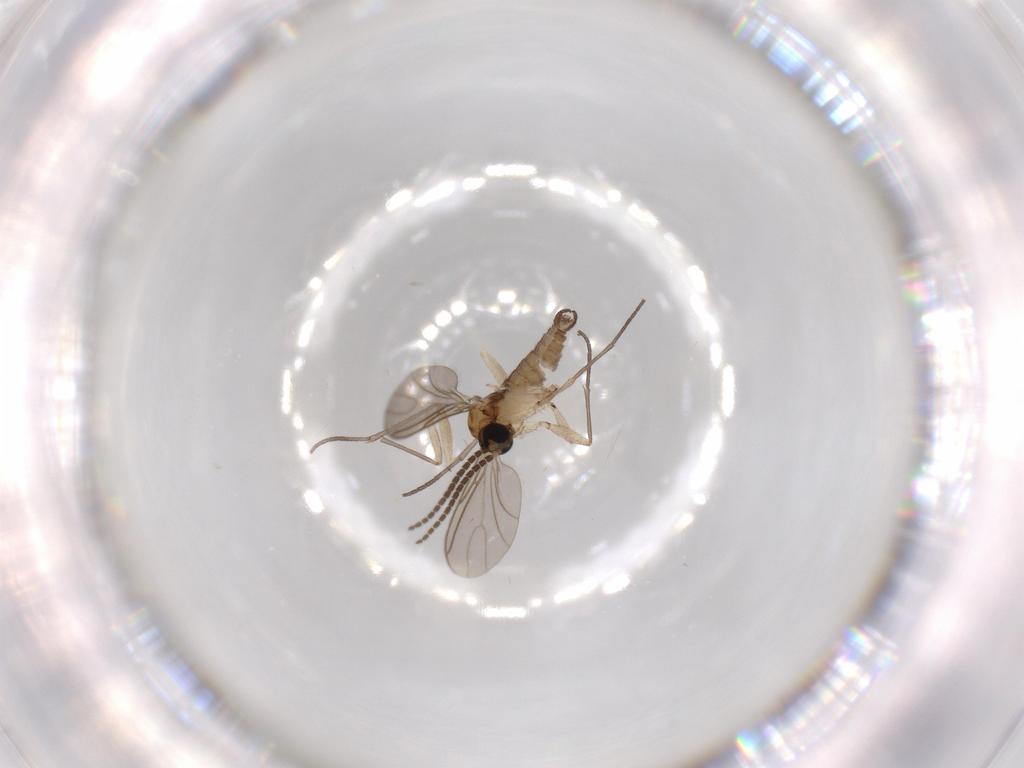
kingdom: Animalia
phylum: Arthropoda
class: Insecta
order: Diptera
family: Sciaridae
